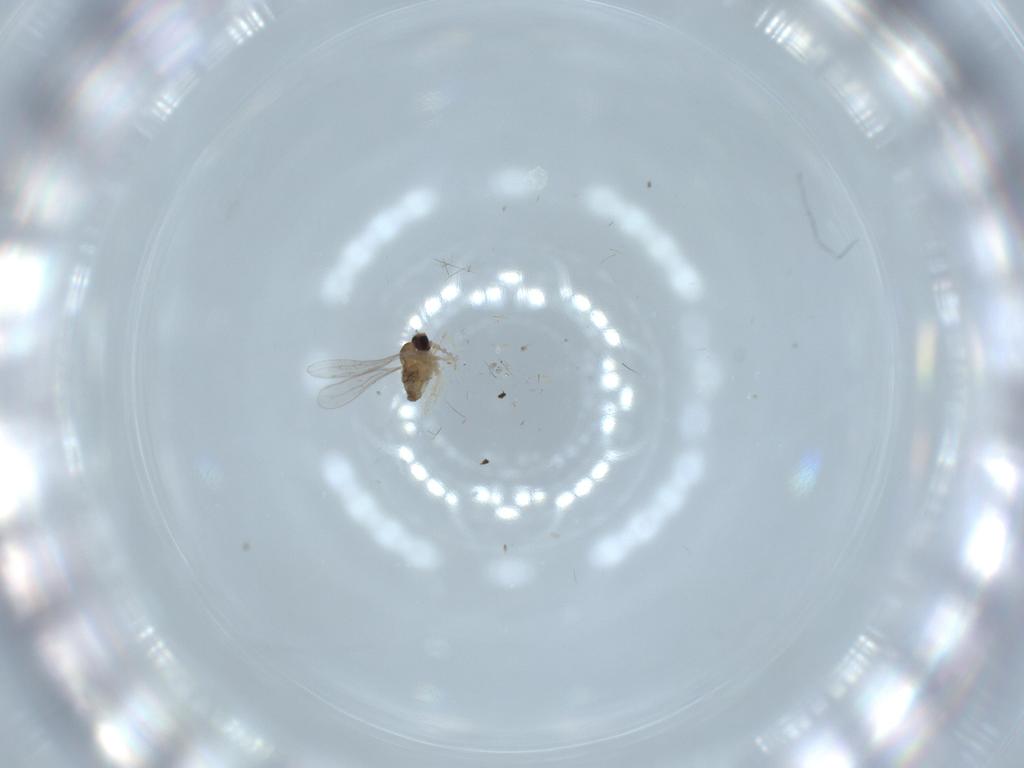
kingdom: Animalia
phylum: Arthropoda
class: Insecta
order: Diptera
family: Cecidomyiidae
